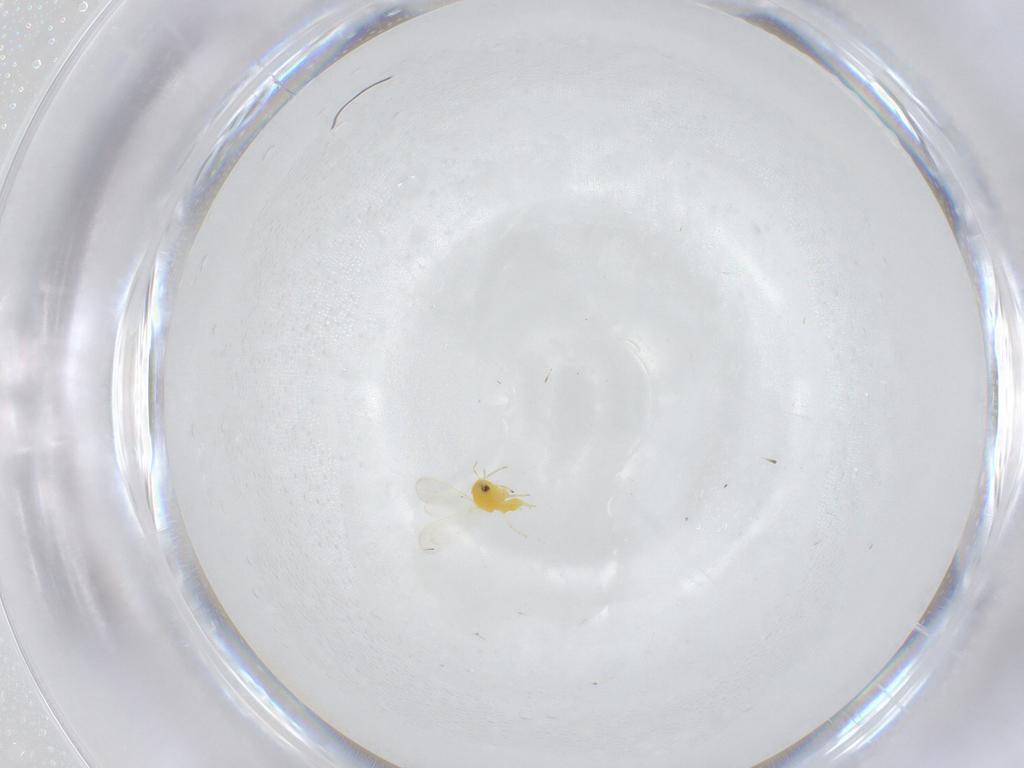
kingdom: Animalia
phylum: Arthropoda
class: Insecta
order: Hemiptera
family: Aleyrodidae
